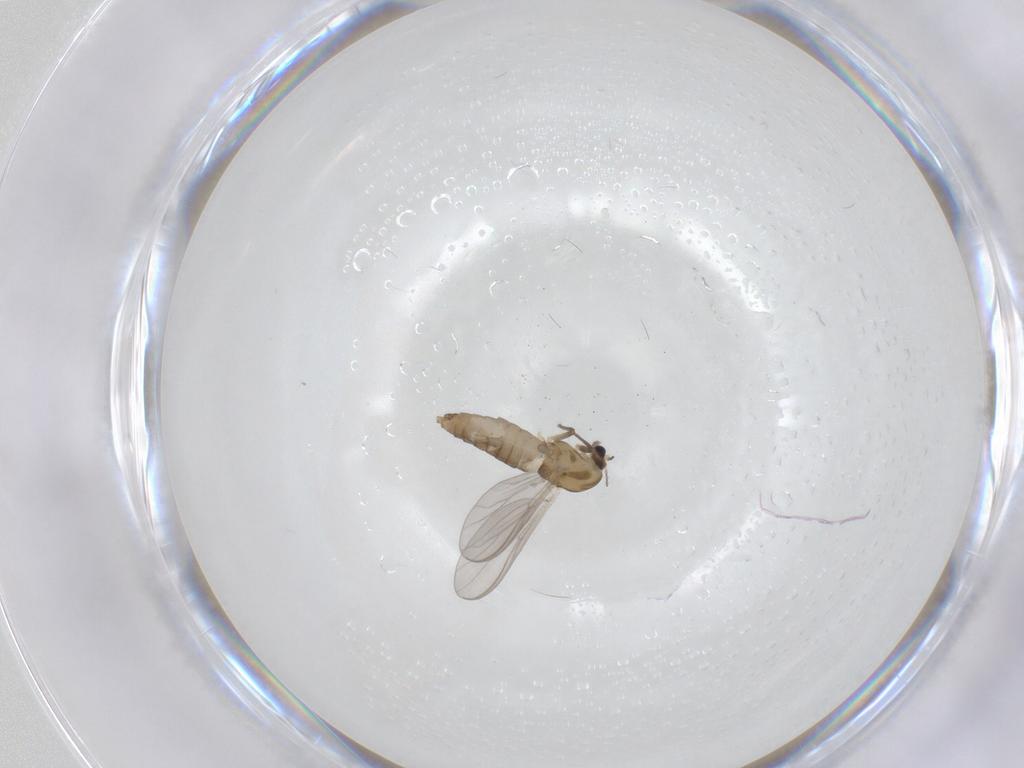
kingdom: Animalia
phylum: Arthropoda
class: Insecta
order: Diptera
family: Chironomidae
